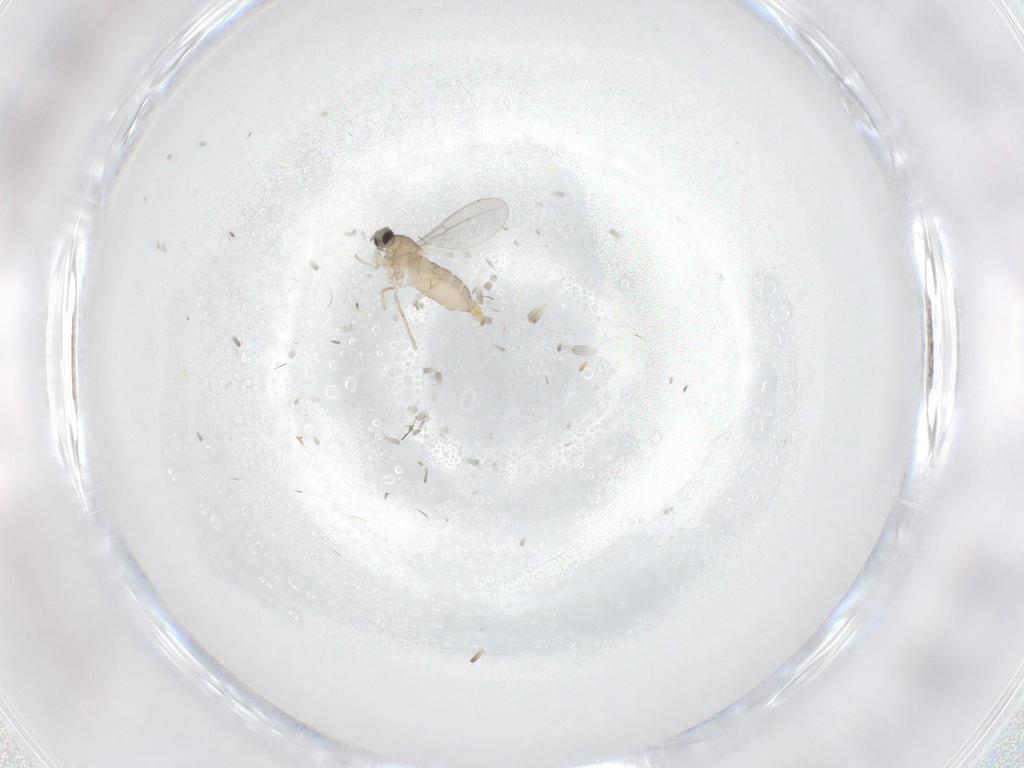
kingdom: Animalia
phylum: Arthropoda
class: Insecta
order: Diptera
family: Cecidomyiidae
